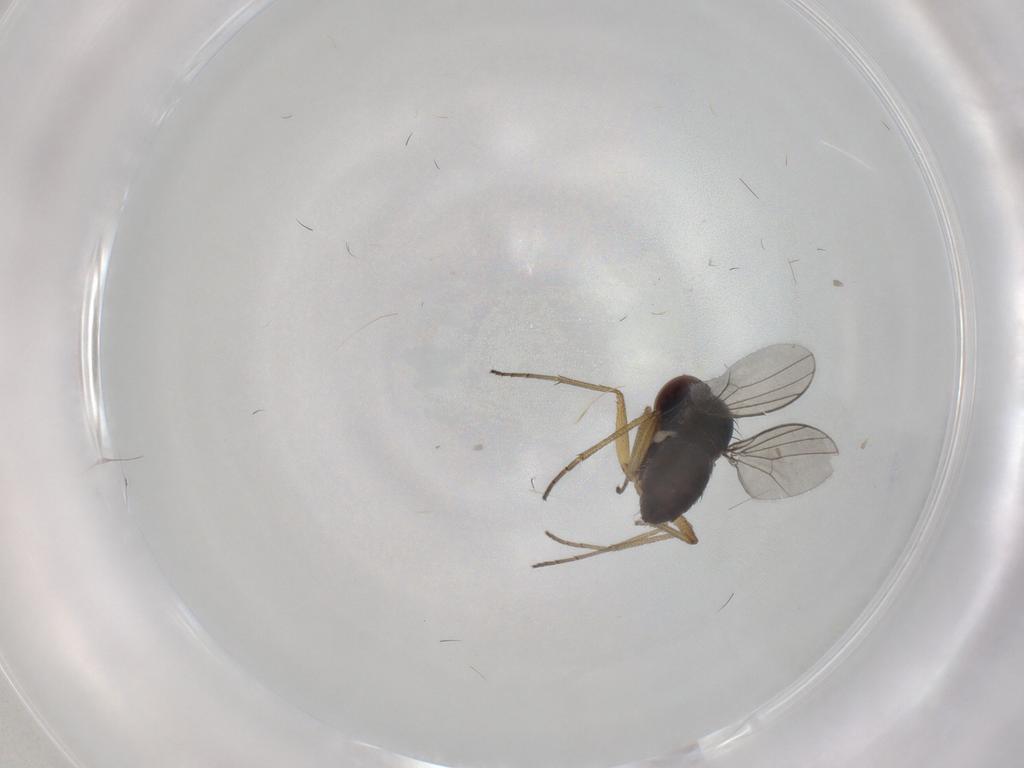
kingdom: Animalia
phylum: Arthropoda
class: Insecta
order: Diptera
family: Dolichopodidae
